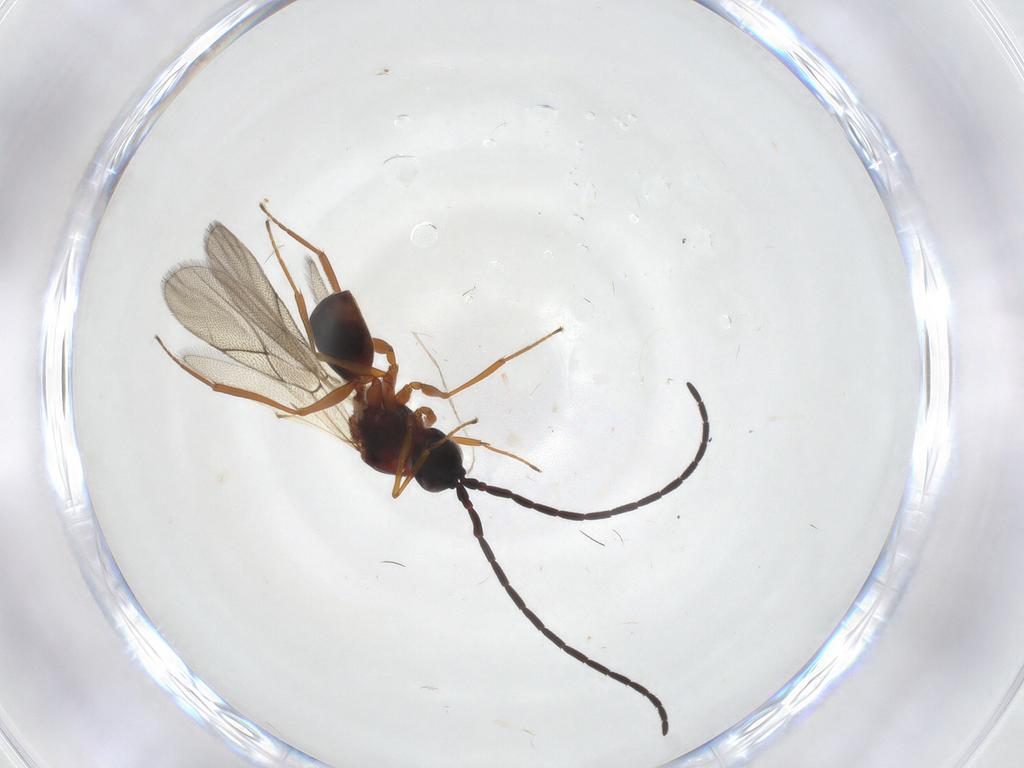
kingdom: Animalia
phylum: Arthropoda
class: Insecta
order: Hymenoptera
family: Figitidae
